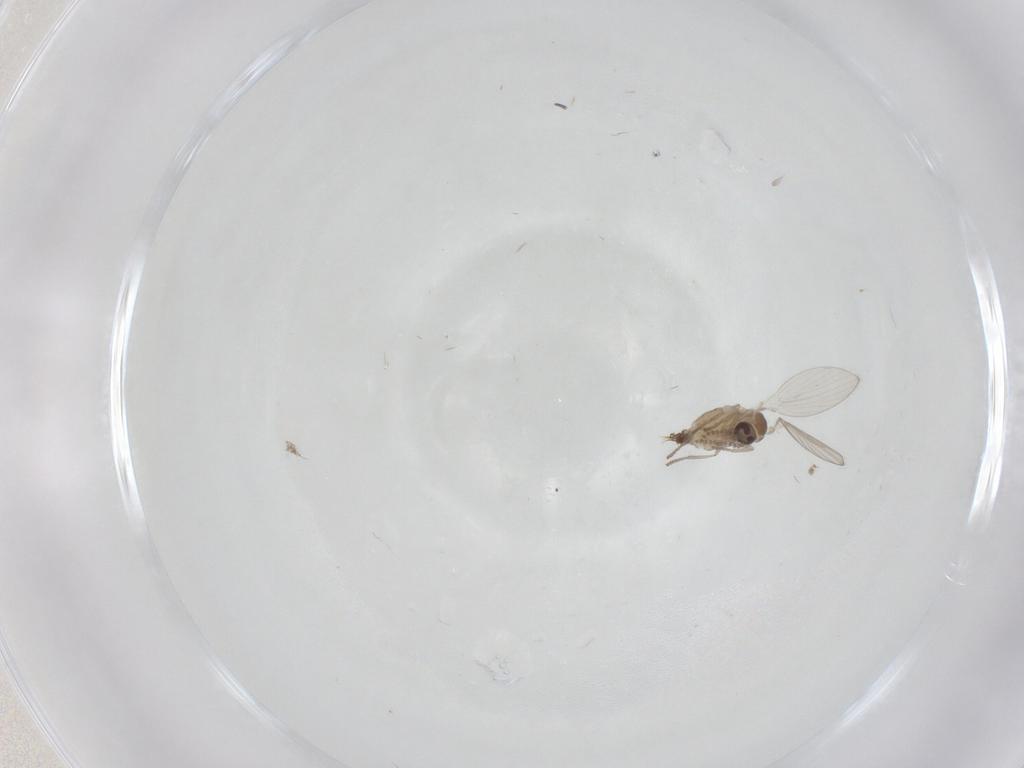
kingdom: Animalia
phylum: Arthropoda
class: Insecta
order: Diptera
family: Psychodidae
